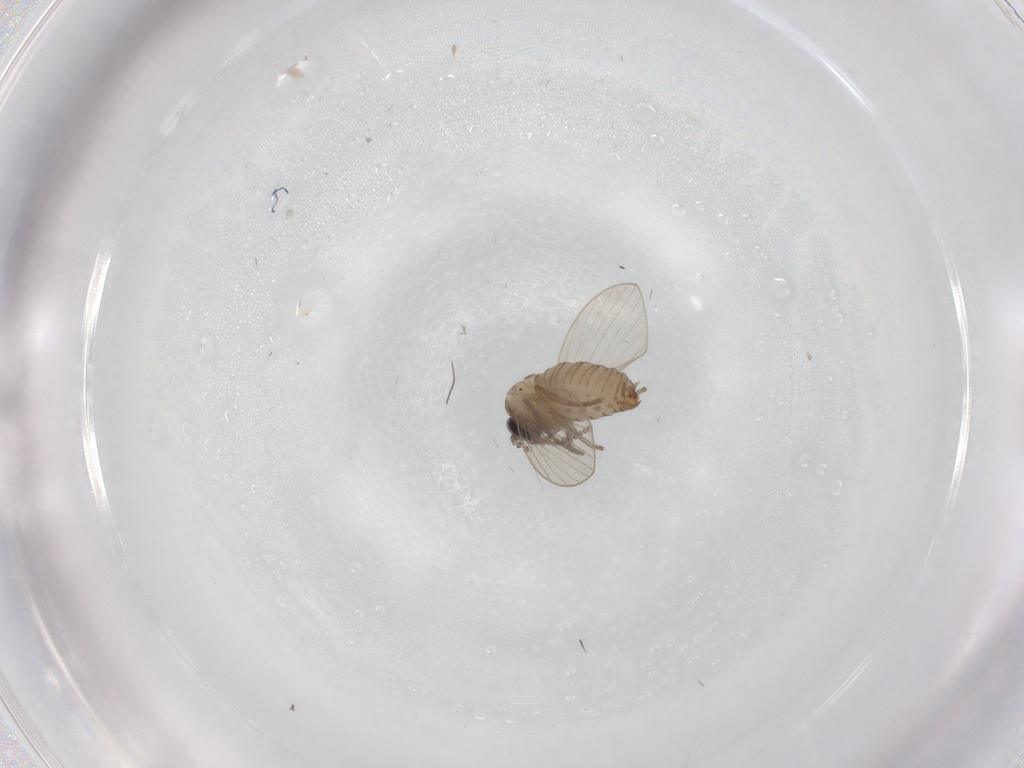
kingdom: Animalia
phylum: Arthropoda
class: Insecta
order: Diptera
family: Psychodidae
